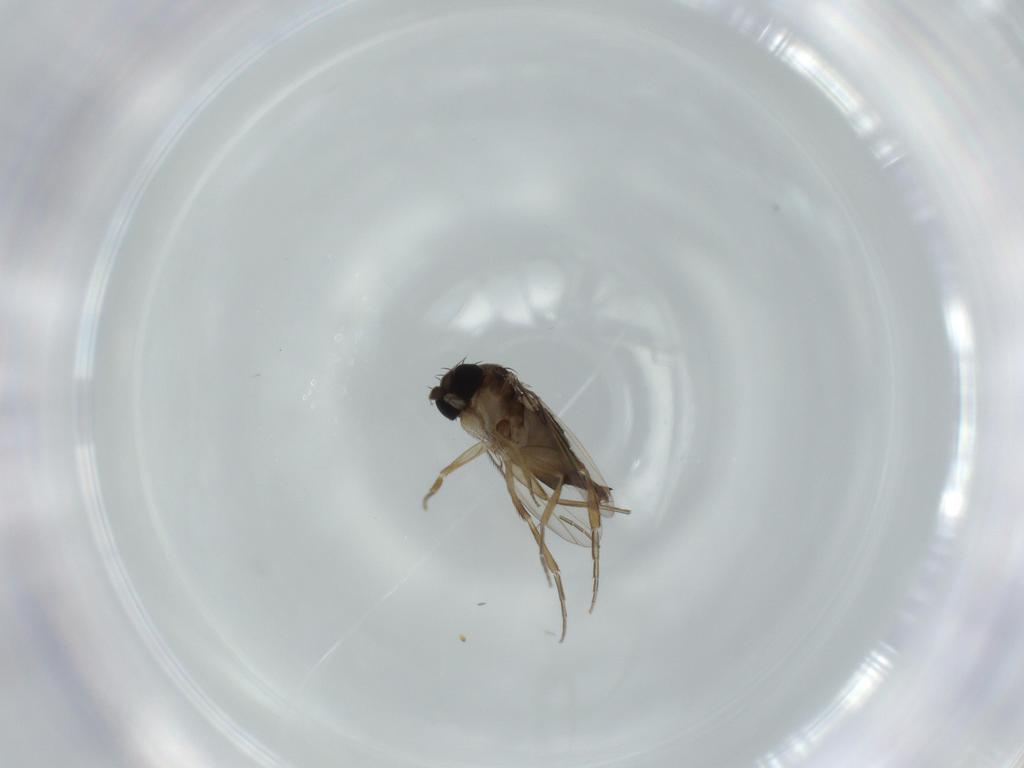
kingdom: Animalia
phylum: Arthropoda
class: Insecta
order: Diptera
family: Phoridae
